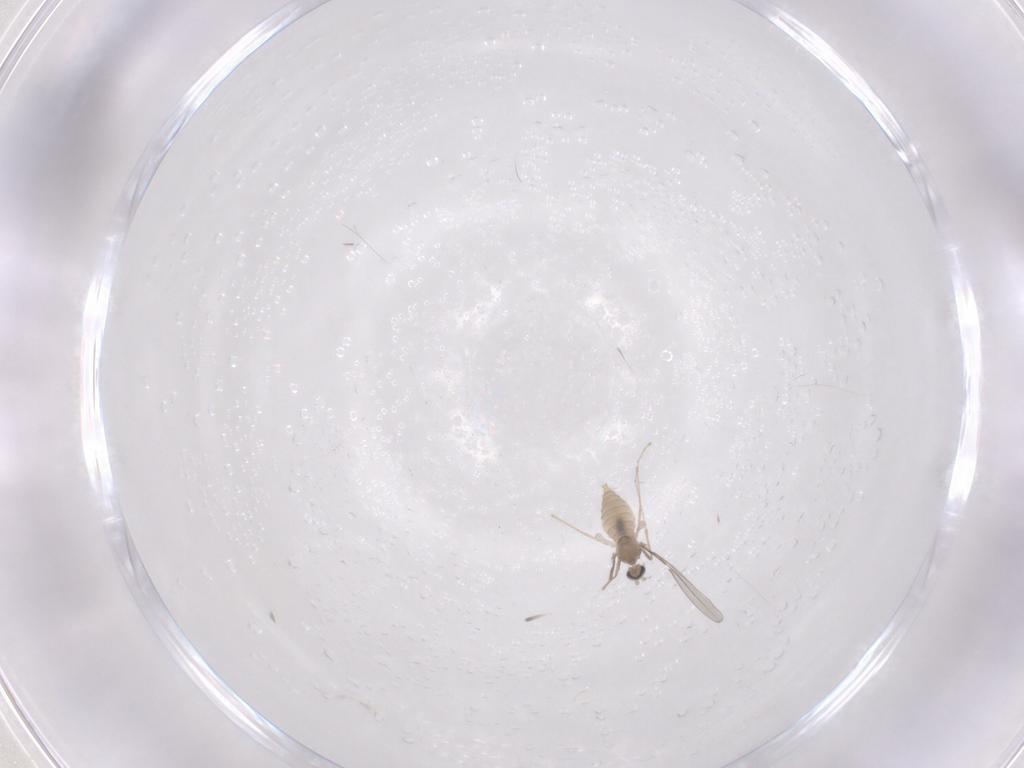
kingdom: Animalia
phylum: Arthropoda
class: Insecta
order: Diptera
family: Cecidomyiidae
